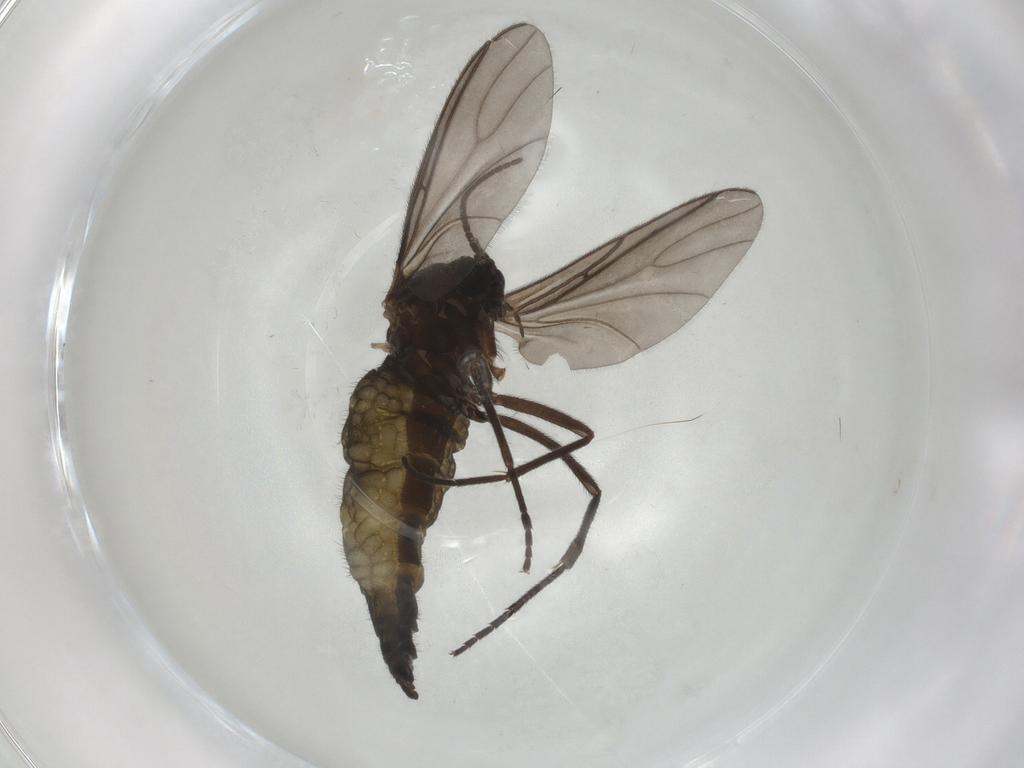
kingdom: Animalia
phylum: Arthropoda
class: Insecta
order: Diptera
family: Sciaridae
